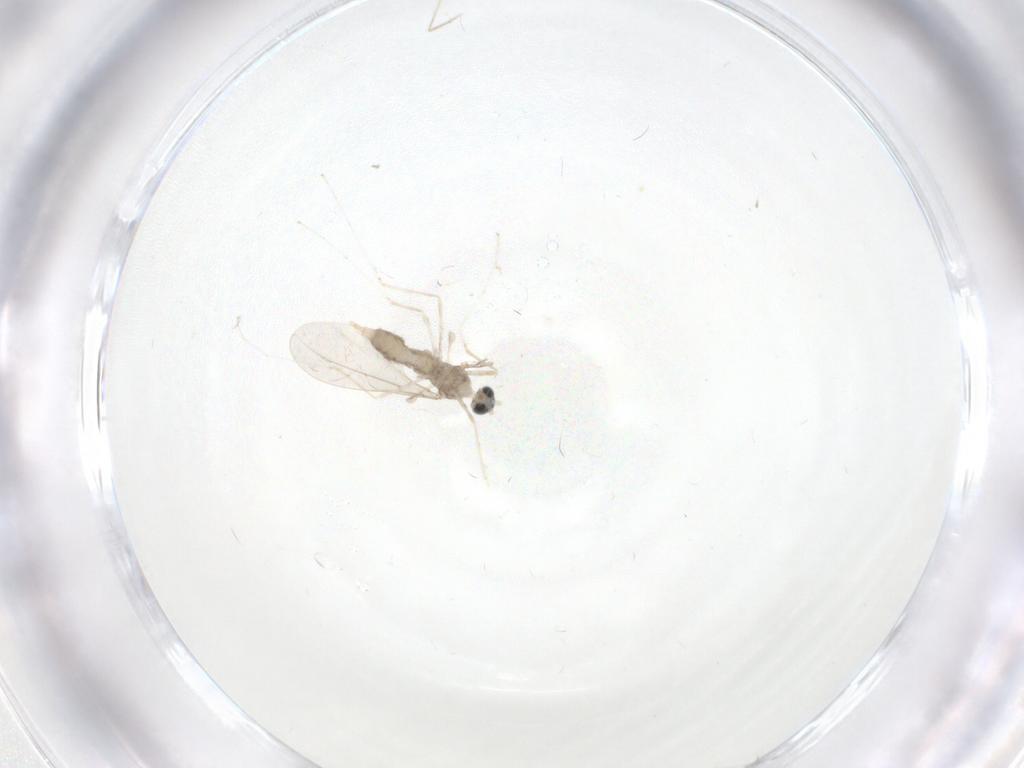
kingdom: Animalia
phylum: Arthropoda
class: Insecta
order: Diptera
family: Cecidomyiidae
